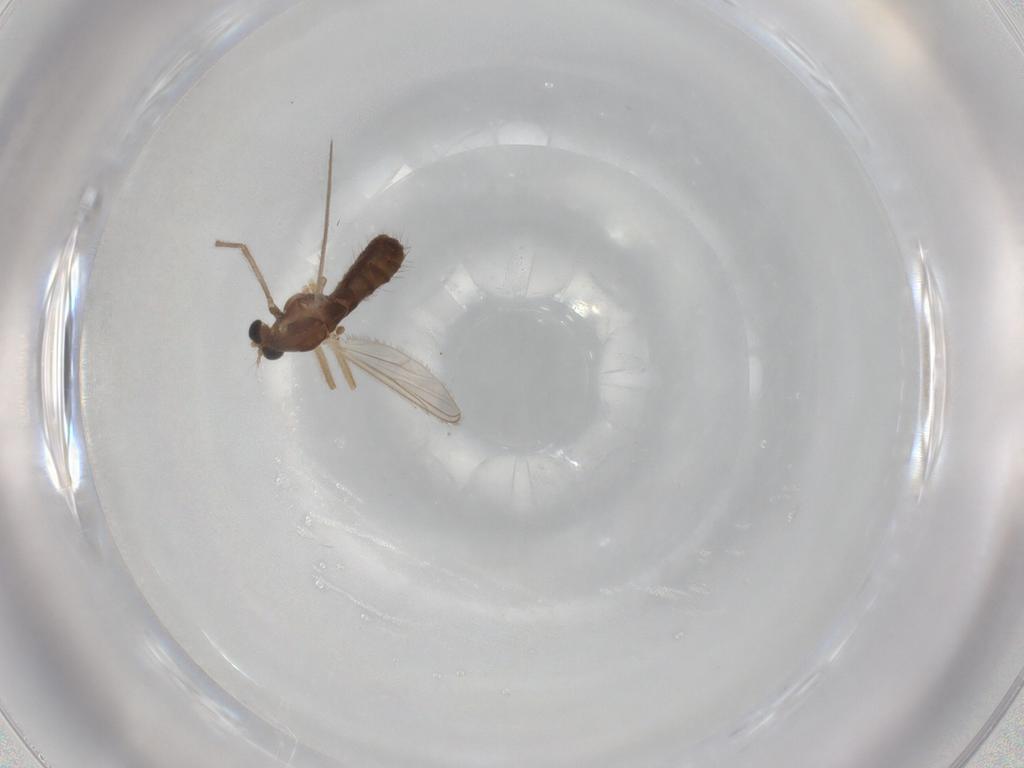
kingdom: Animalia
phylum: Arthropoda
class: Insecta
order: Diptera
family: Chironomidae
